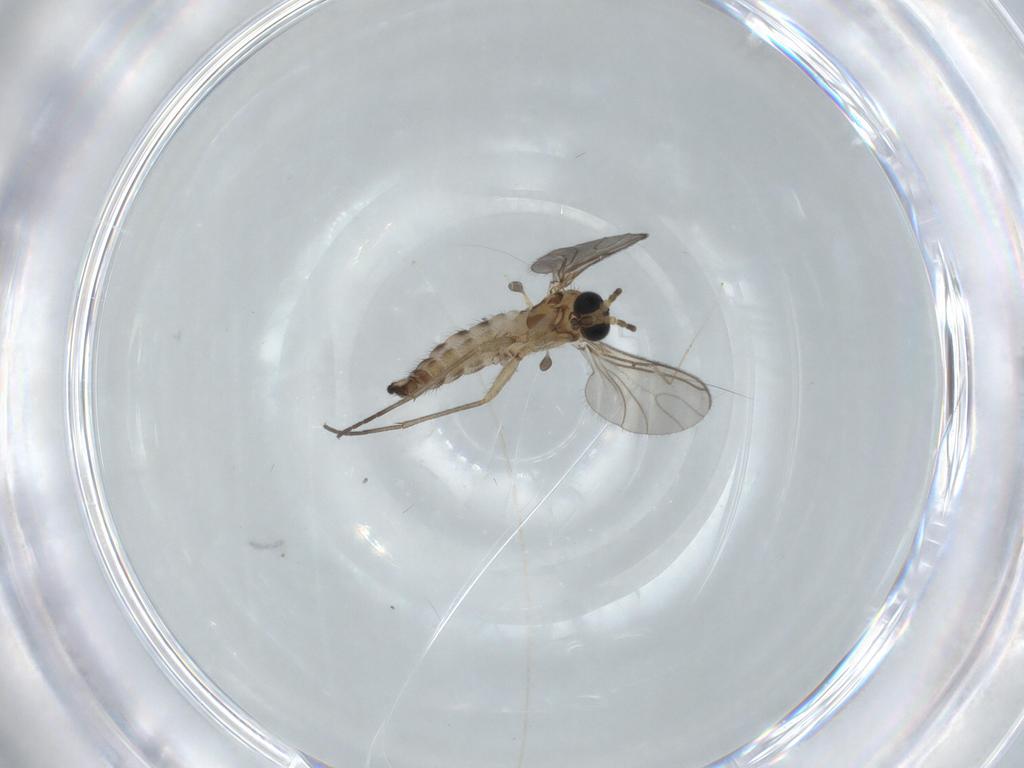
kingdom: Animalia
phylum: Arthropoda
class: Insecta
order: Diptera
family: Sciaridae
